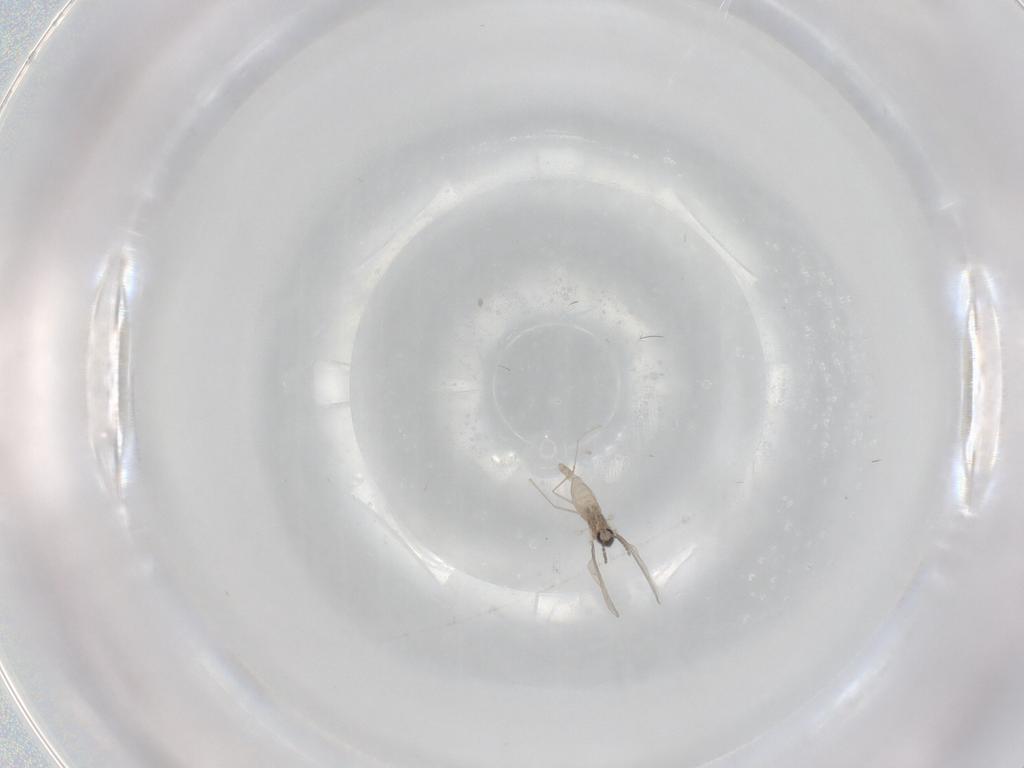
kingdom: Animalia
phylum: Arthropoda
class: Insecta
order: Diptera
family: Cecidomyiidae
